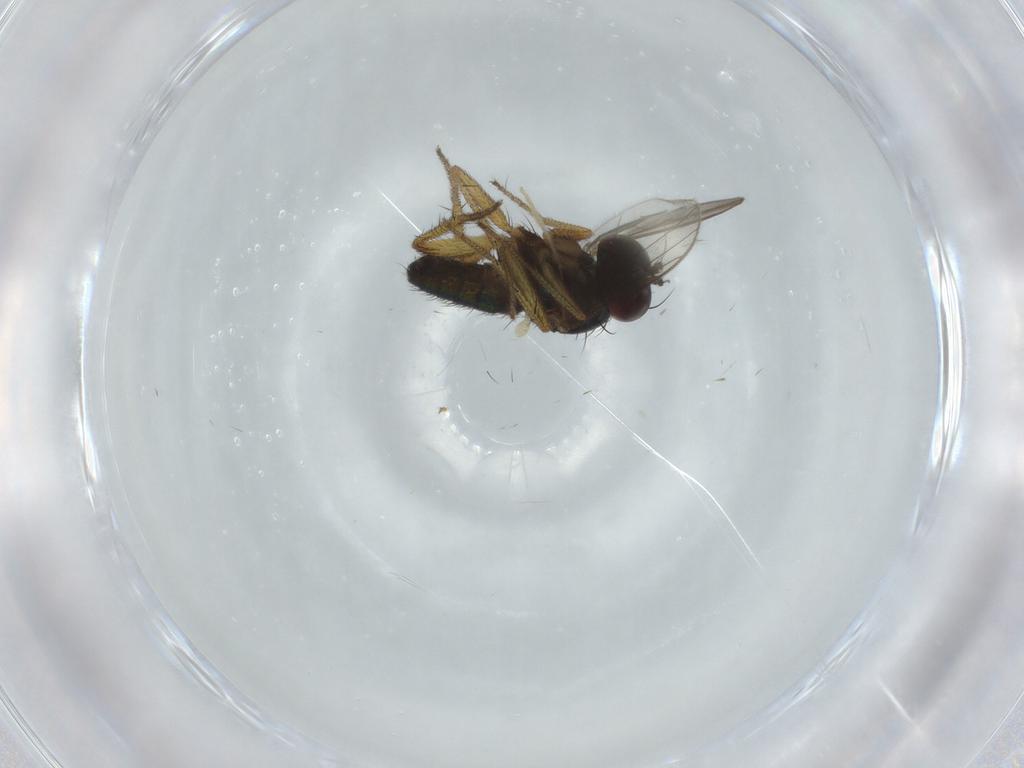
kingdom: Animalia
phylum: Arthropoda
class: Insecta
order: Diptera
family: Dolichopodidae
